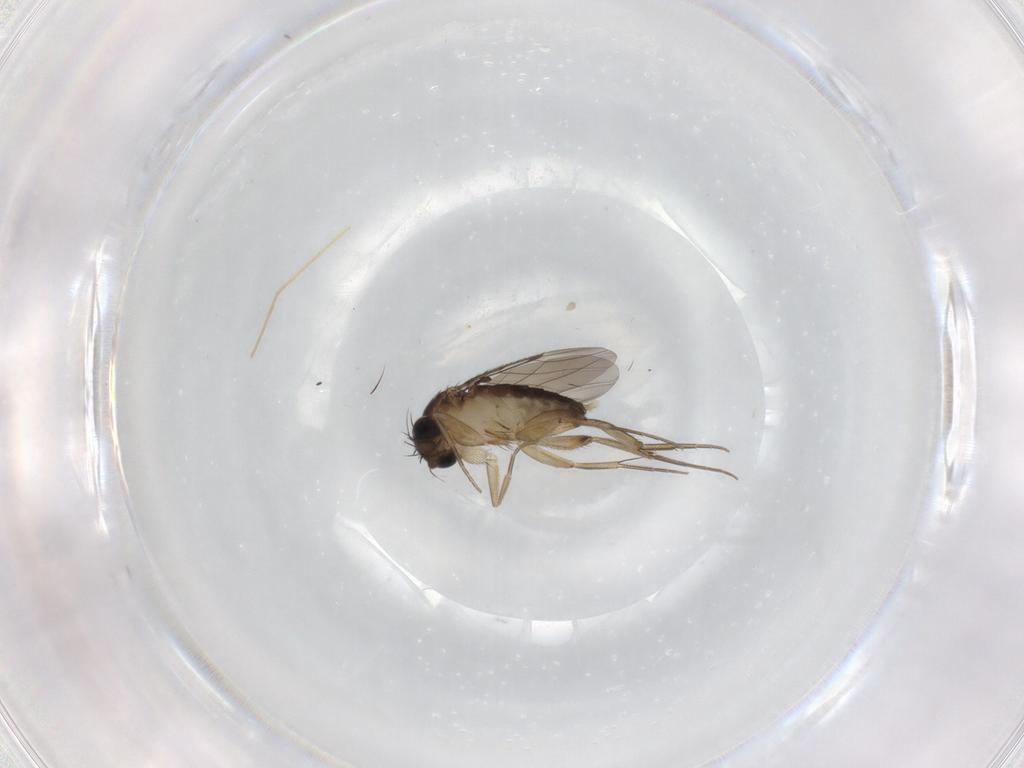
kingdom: Animalia
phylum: Arthropoda
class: Insecta
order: Diptera
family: Phoridae
